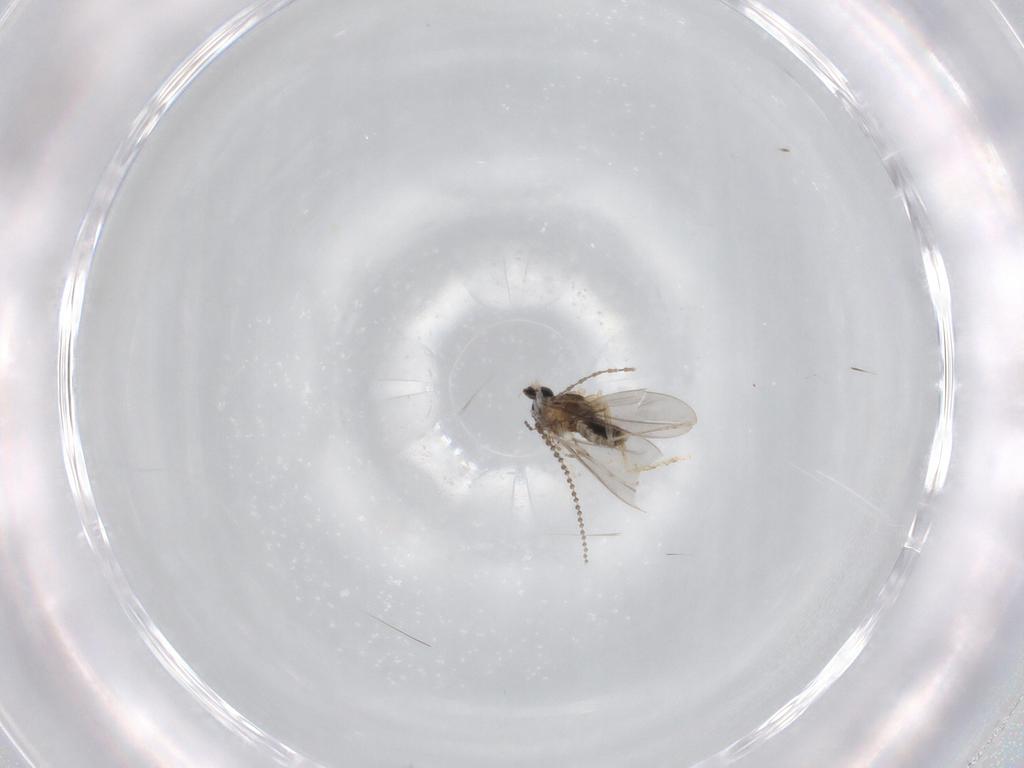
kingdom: Animalia
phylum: Arthropoda
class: Insecta
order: Diptera
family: Cecidomyiidae
